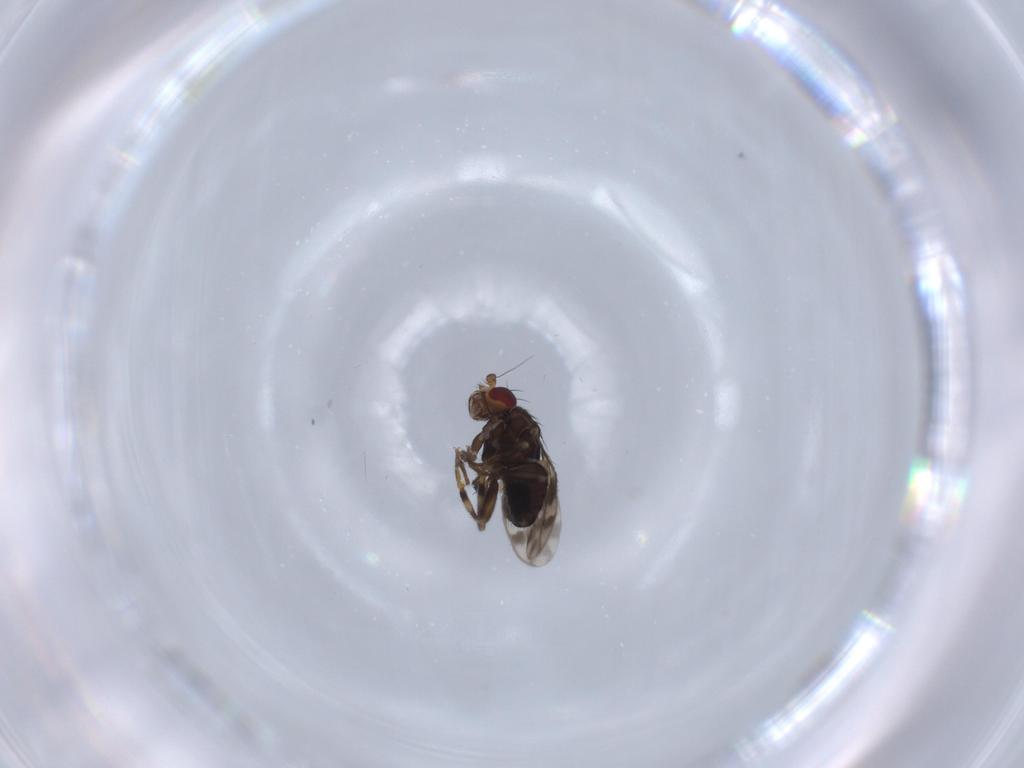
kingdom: Animalia
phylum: Arthropoda
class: Insecta
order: Diptera
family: Sphaeroceridae
